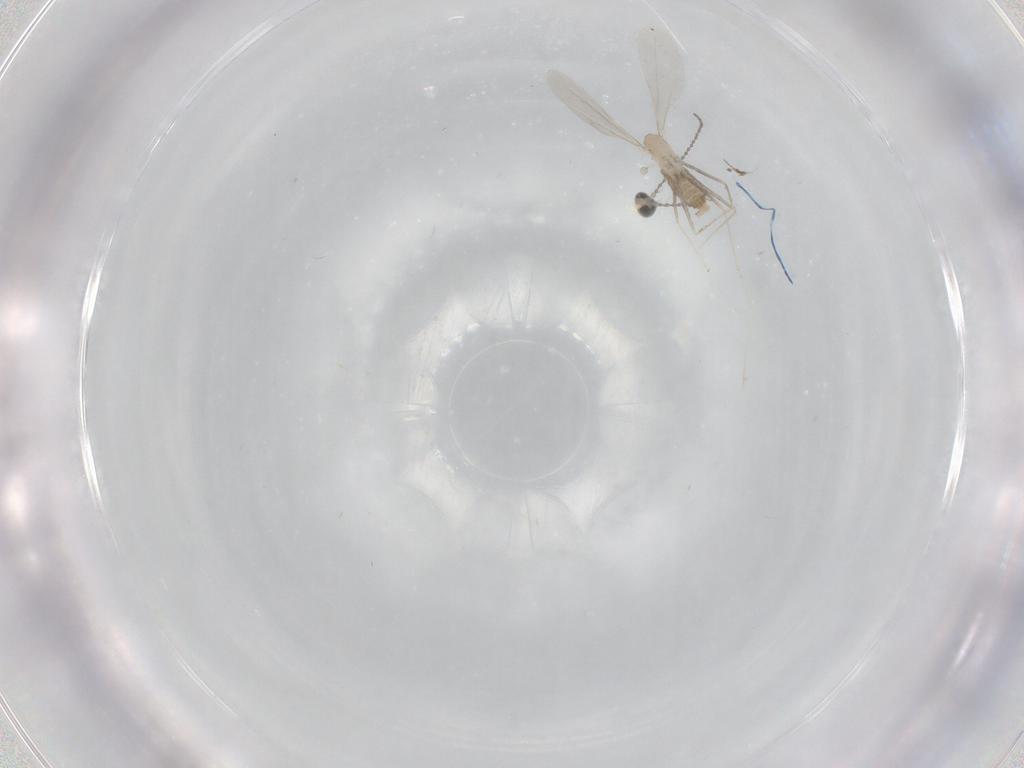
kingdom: Animalia
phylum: Arthropoda
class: Insecta
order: Diptera
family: Cecidomyiidae
